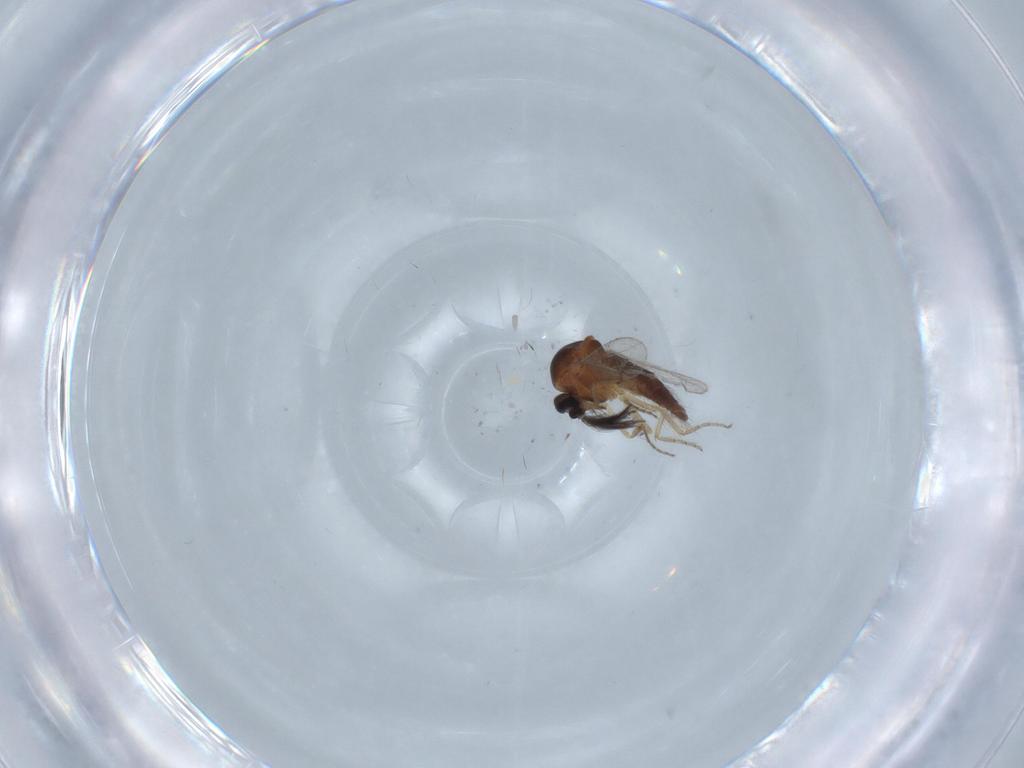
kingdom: Animalia
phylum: Arthropoda
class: Insecta
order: Diptera
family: Ceratopogonidae
